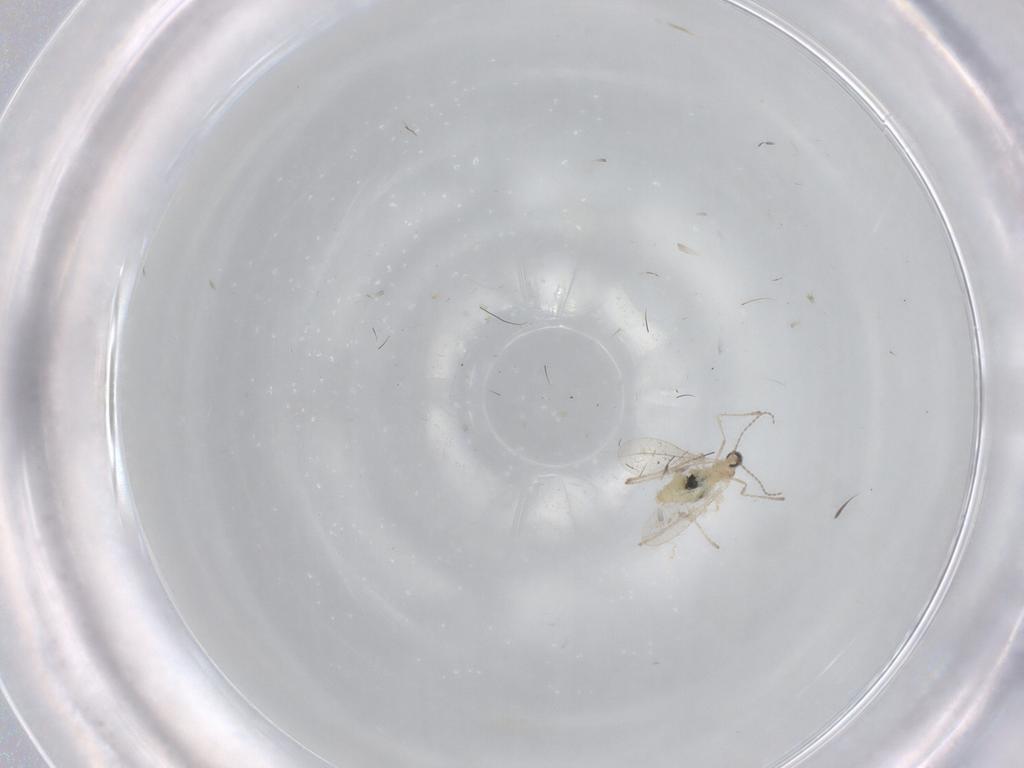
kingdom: Animalia
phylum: Arthropoda
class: Insecta
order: Diptera
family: Cecidomyiidae
